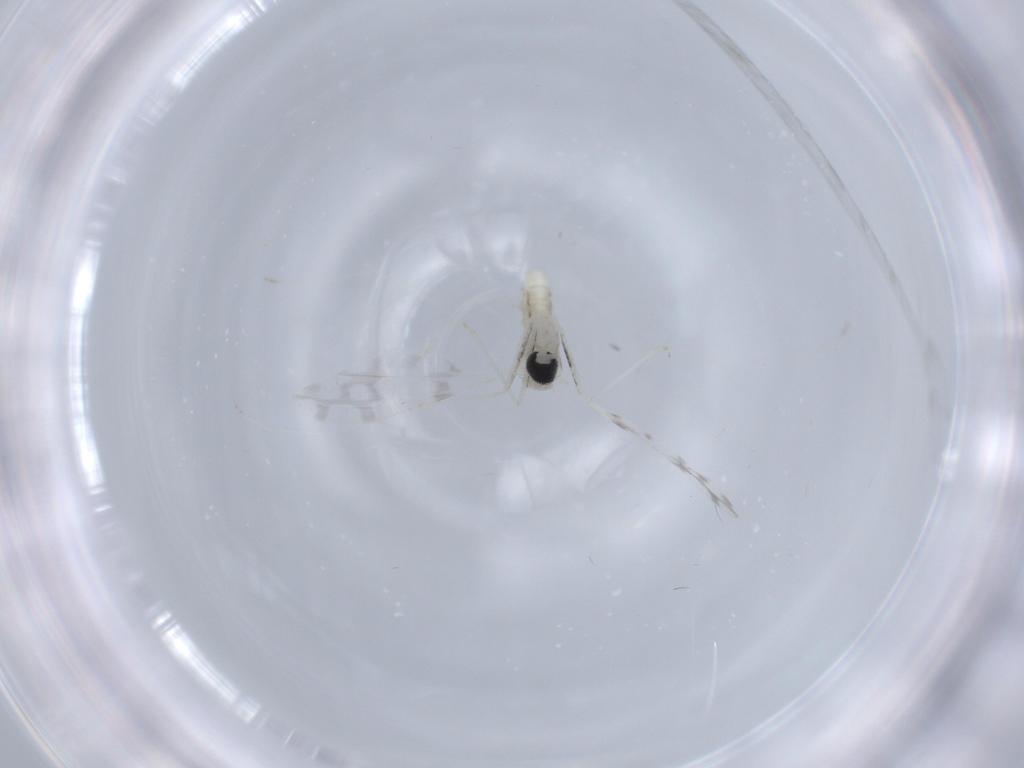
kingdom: Animalia
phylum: Arthropoda
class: Insecta
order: Diptera
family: Cecidomyiidae
